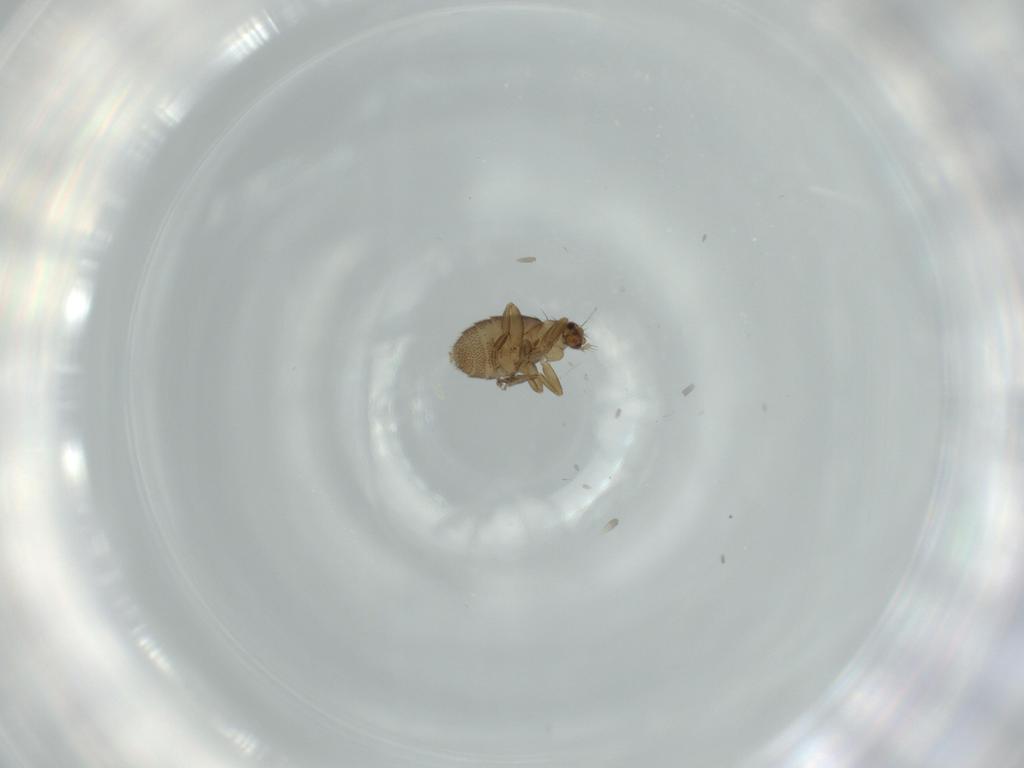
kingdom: Animalia
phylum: Arthropoda
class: Insecta
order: Diptera
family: Phoridae
